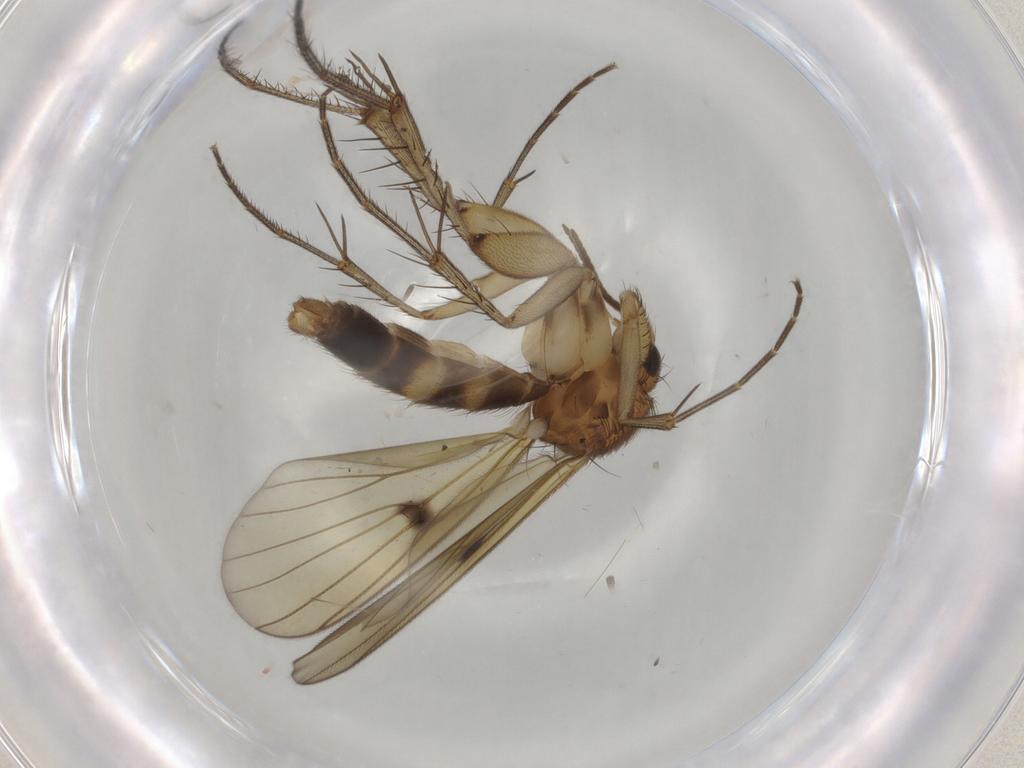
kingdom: Animalia
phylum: Arthropoda
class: Insecta
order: Diptera
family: Mycetophilidae
